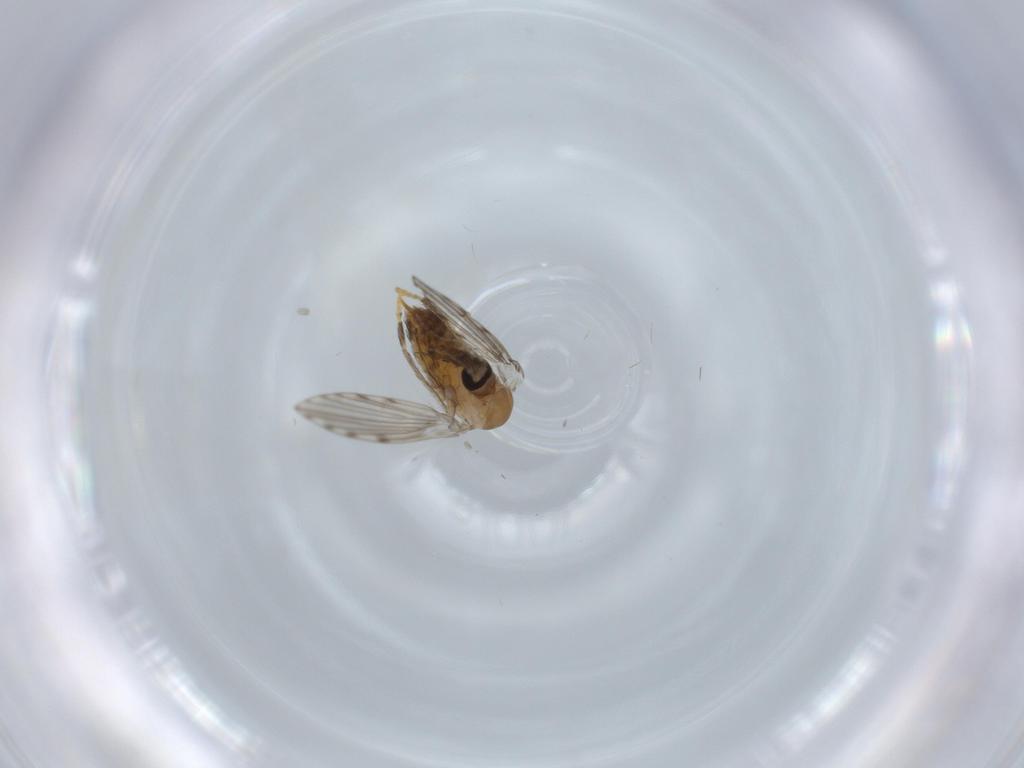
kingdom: Animalia
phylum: Arthropoda
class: Insecta
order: Diptera
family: Psychodidae
